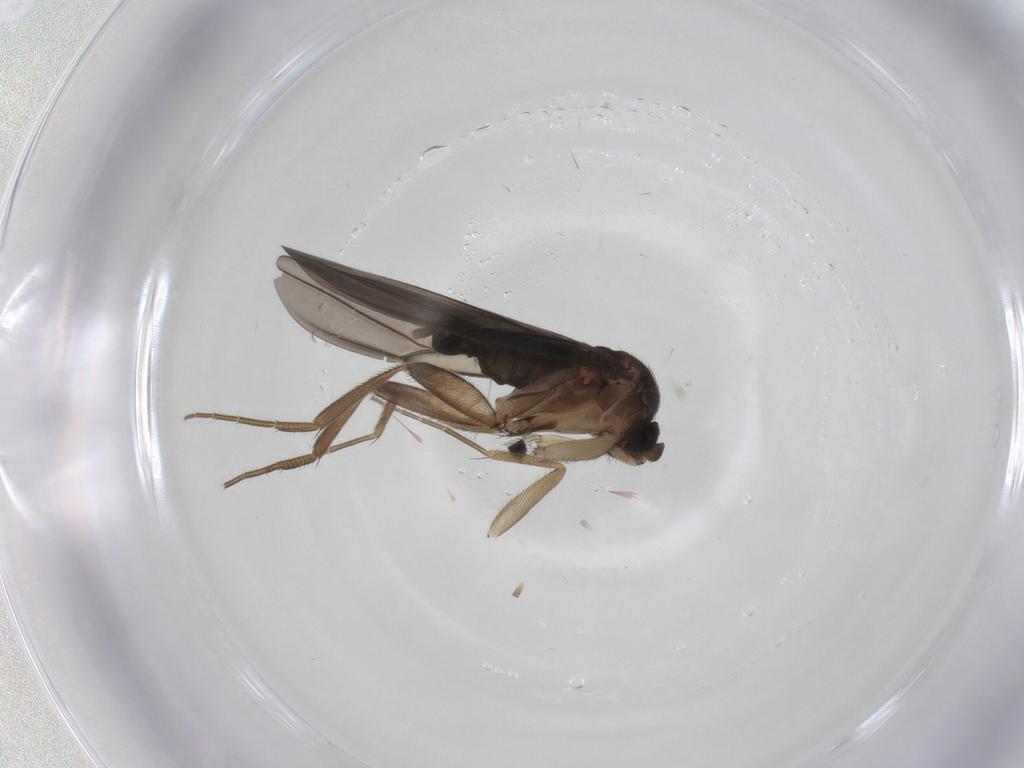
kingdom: Animalia
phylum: Arthropoda
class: Insecta
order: Diptera
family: Phoridae
